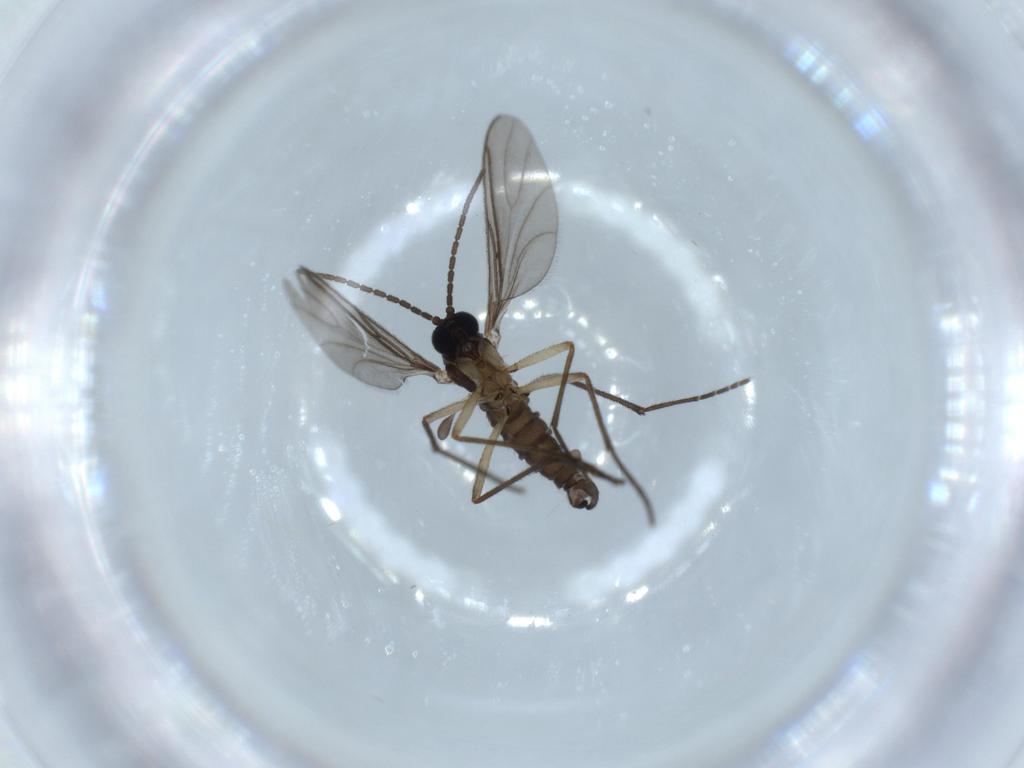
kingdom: Animalia
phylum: Arthropoda
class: Insecta
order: Diptera
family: Sciaridae
